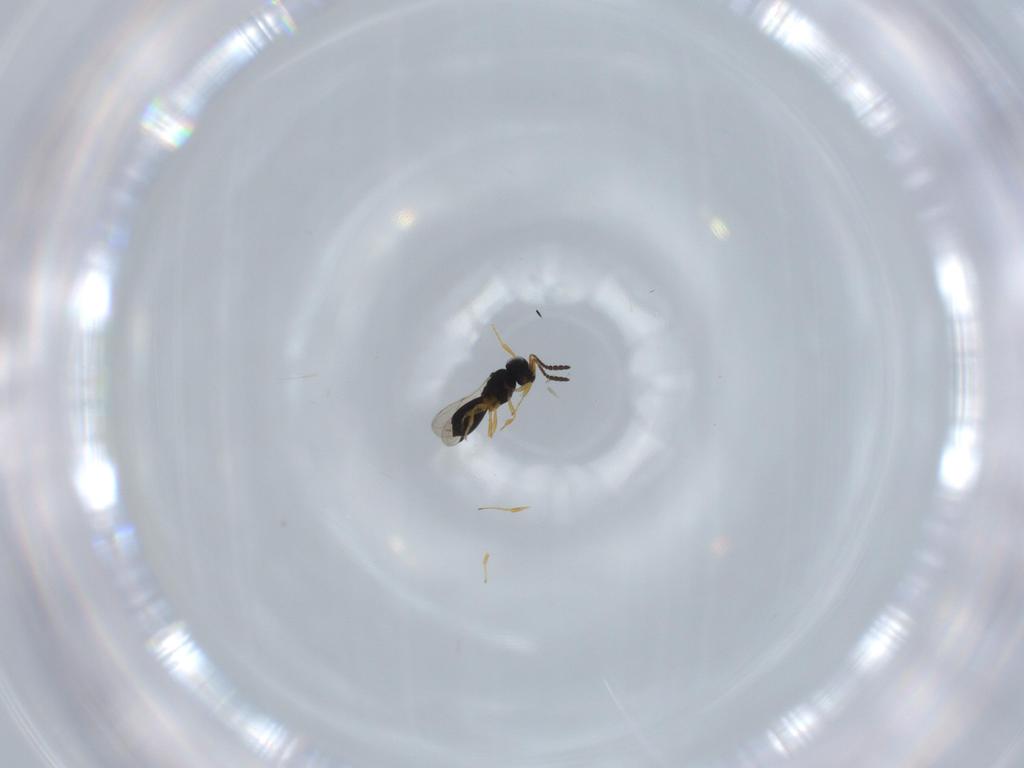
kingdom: Animalia
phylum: Arthropoda
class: Insecta
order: Hymenoptera
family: Scelionidae
